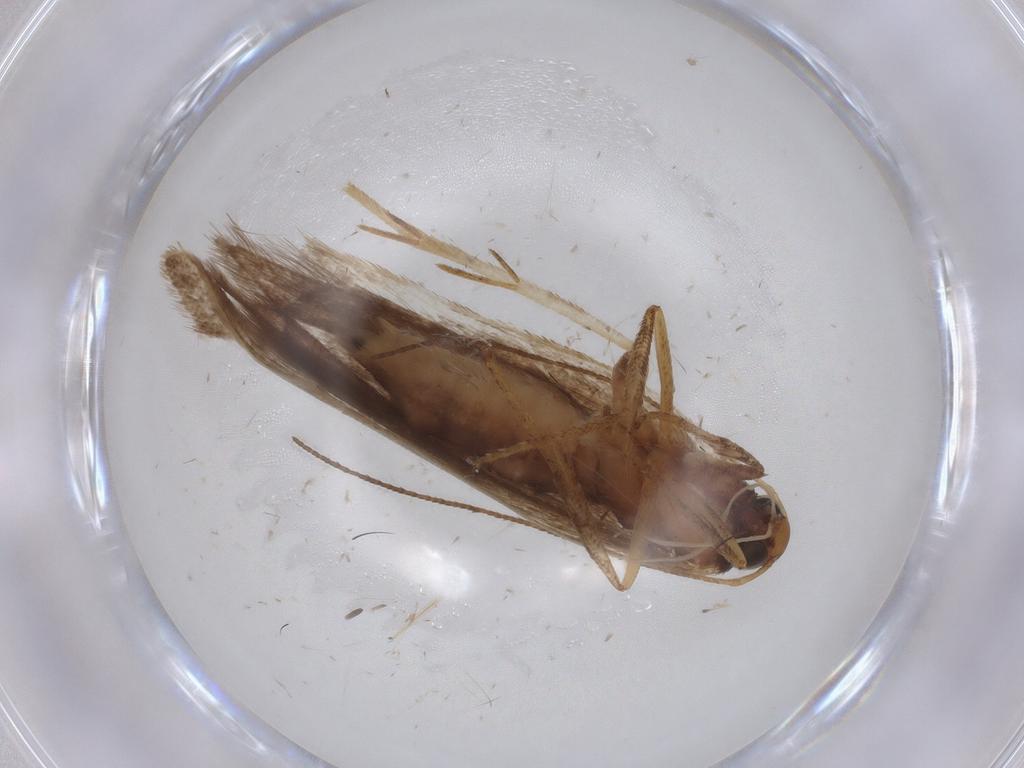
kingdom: Animalia
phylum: Arthropoda
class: Insecta
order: Lepidoptera
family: Gelechiidae
